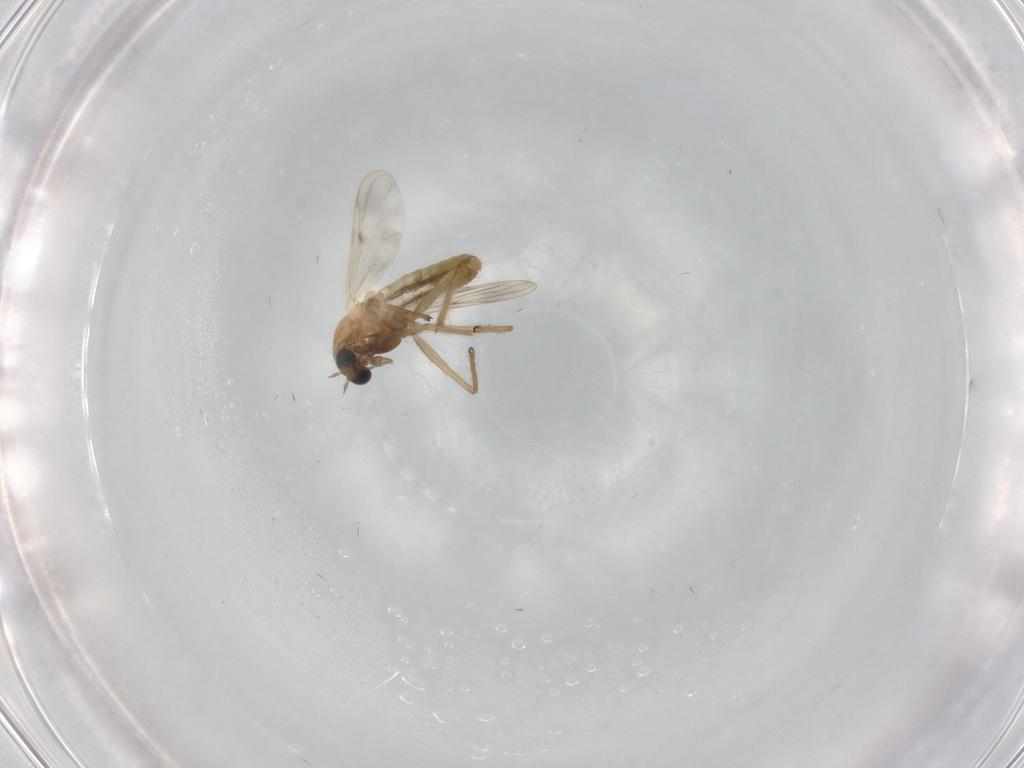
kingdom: Animalia
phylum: Arthropoda
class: Insecta
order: Diptera
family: Chironomidae
